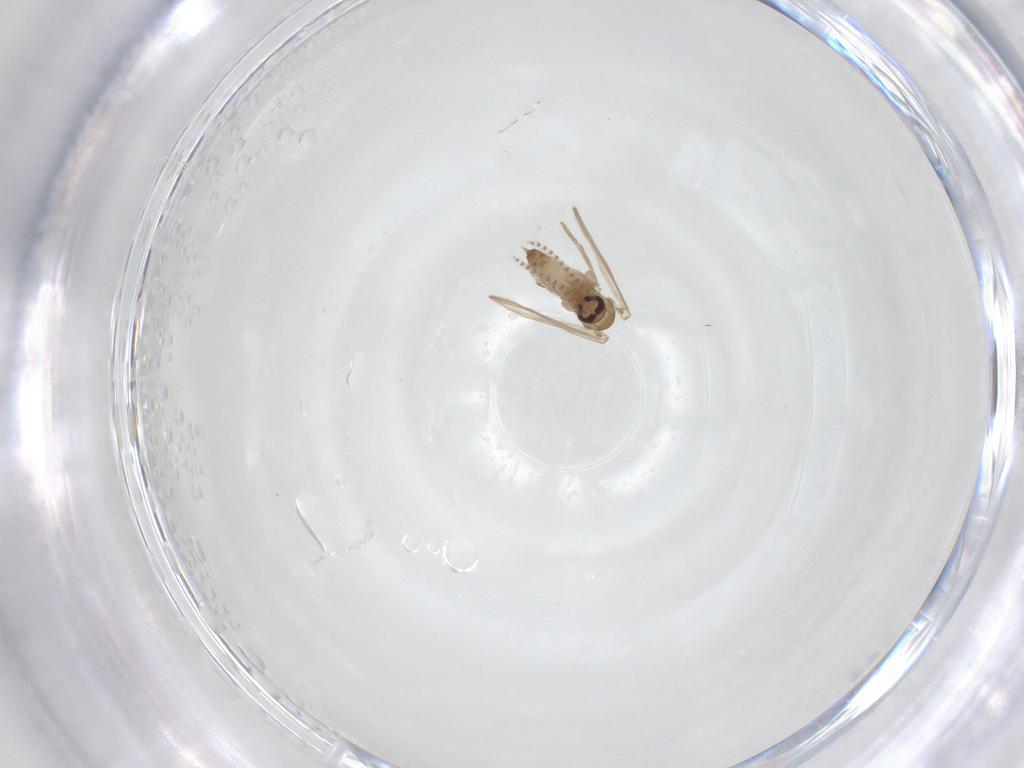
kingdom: Animalia
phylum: Arthropoda
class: Insecta
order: Diptera
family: Psychodidae
